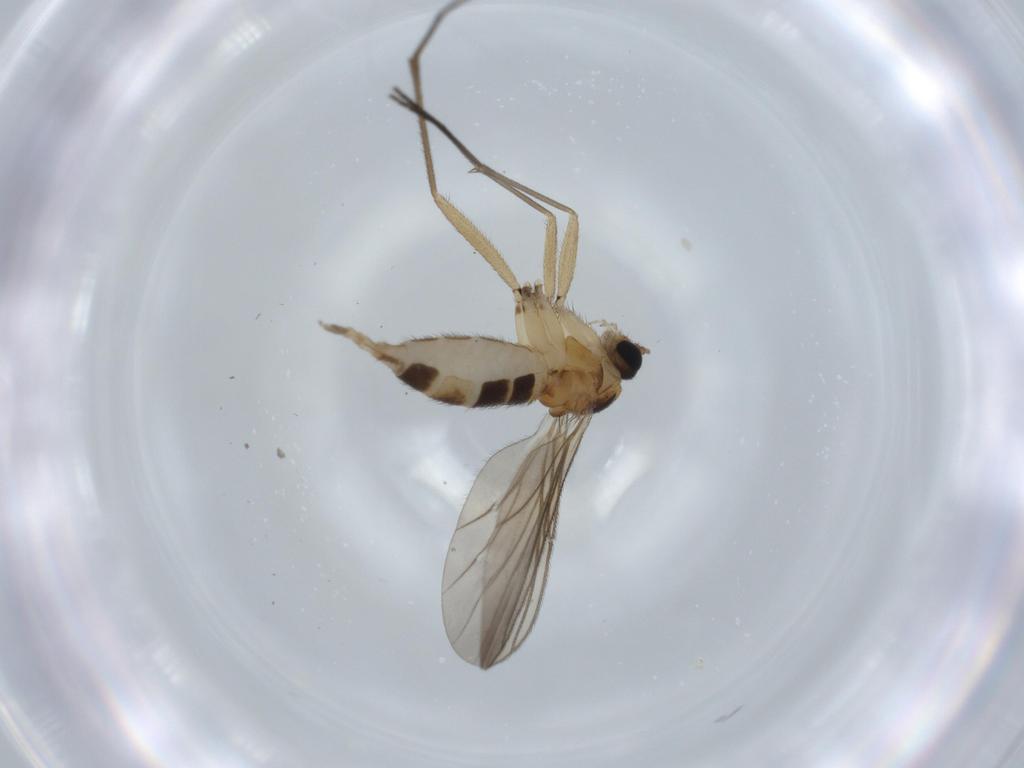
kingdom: Animalia
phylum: Arthropoda
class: Insecta
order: Diptera
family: Sciaridae
